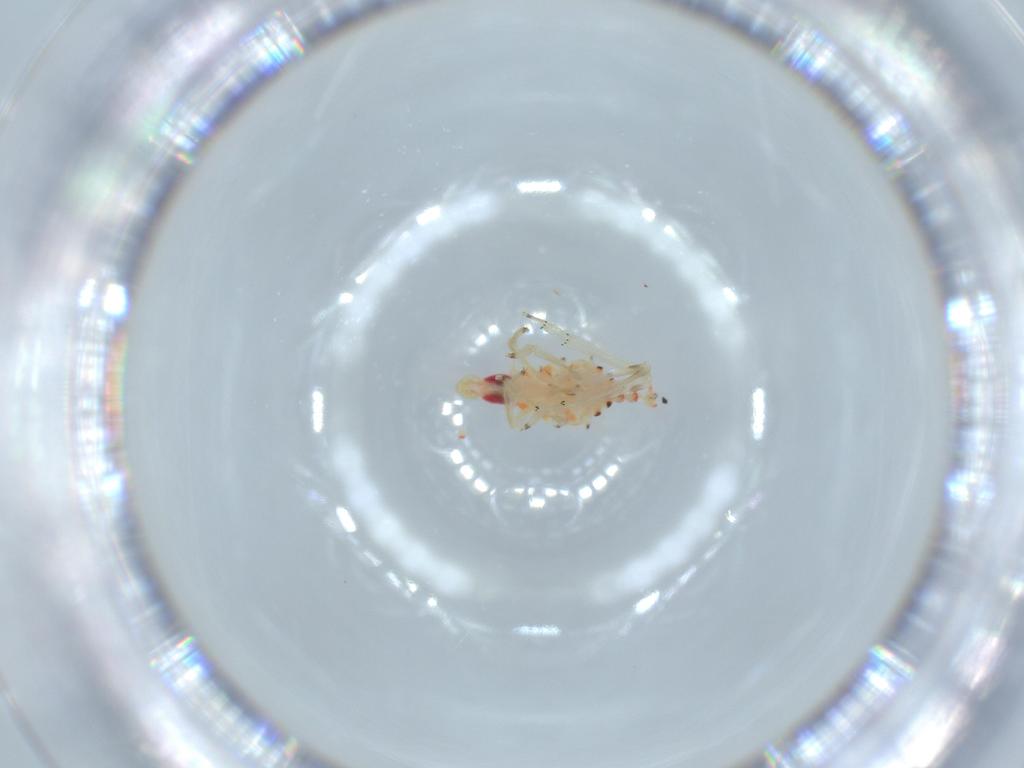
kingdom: Animalia
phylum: Arthropoda
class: Insecta
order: Hemiptera
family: Tropiduchidae
